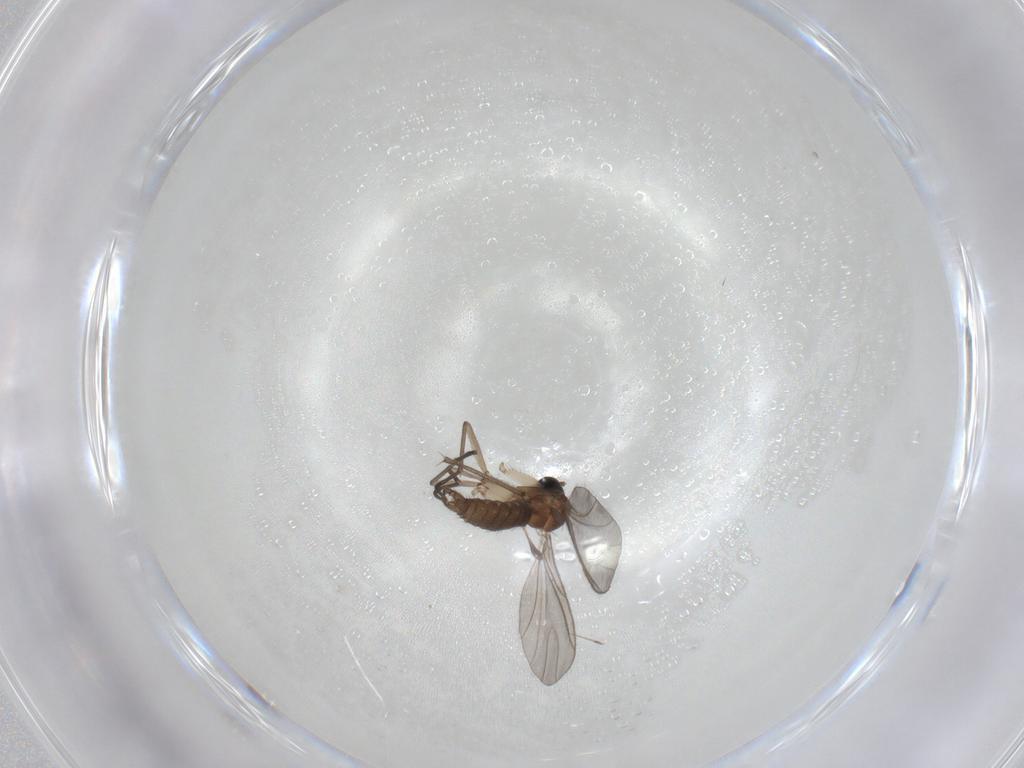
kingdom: Animalia
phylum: Arthropoda
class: Insecta
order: Diptera
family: Sciaridae
